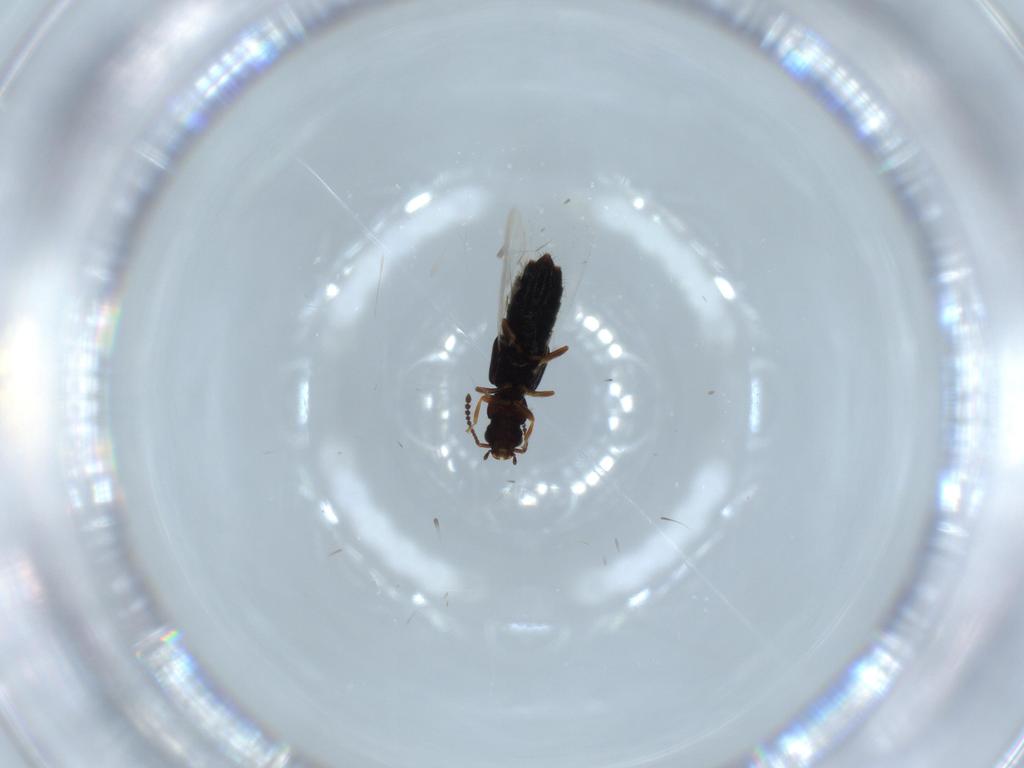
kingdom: Animalia
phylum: Arthropoda
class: Insecta
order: Coleoptera
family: Staphylinidae
